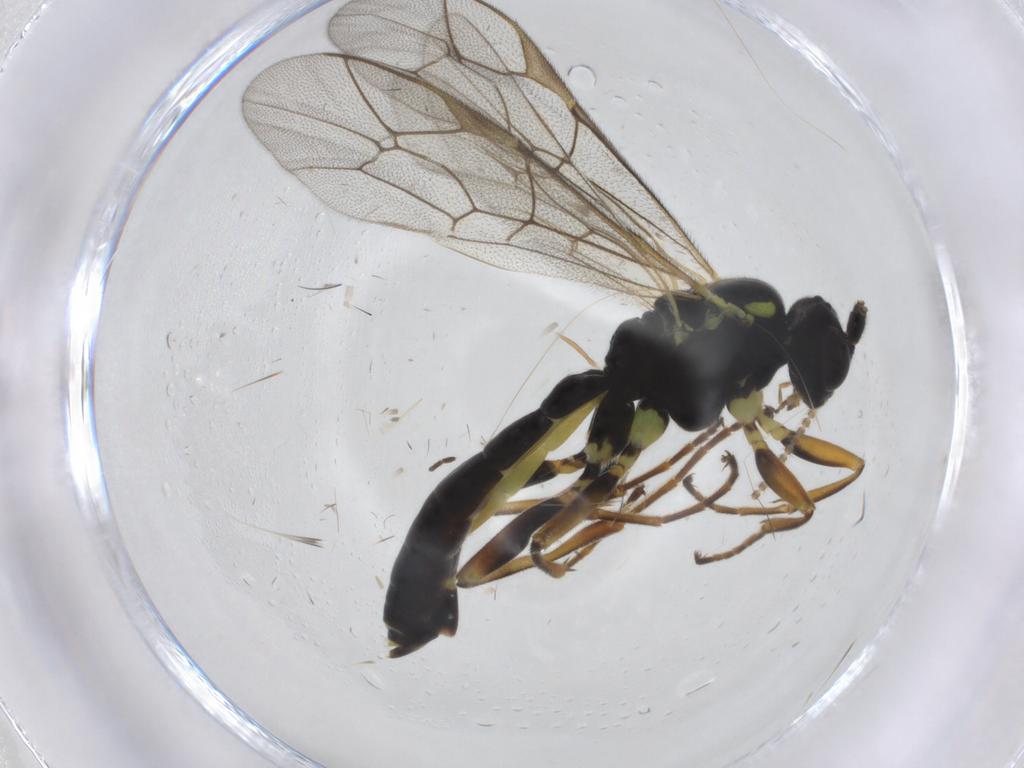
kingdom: Animalia
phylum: Arthropoda
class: Insecta
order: Hymenoptera
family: Ichneumonidae
